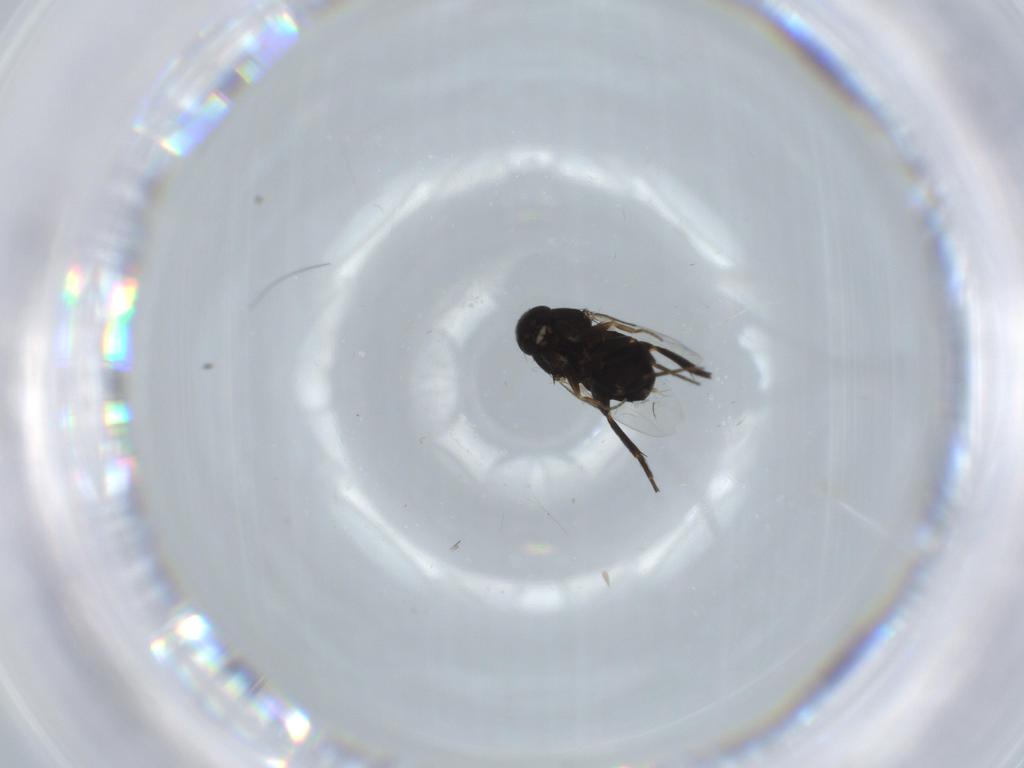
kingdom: Animalia
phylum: Arthropoda
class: Insecta
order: Diptera
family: Phoridae
